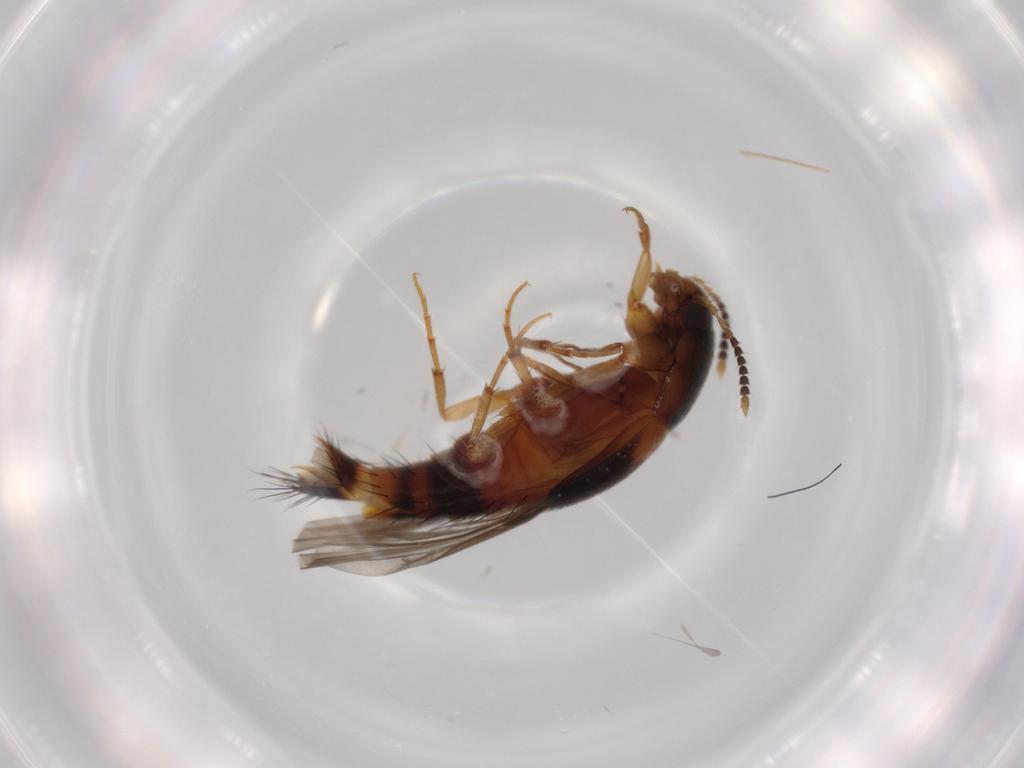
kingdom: Animalia
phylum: Arthropoda
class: Insecta
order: Coleoptera
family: Staphylinidae
